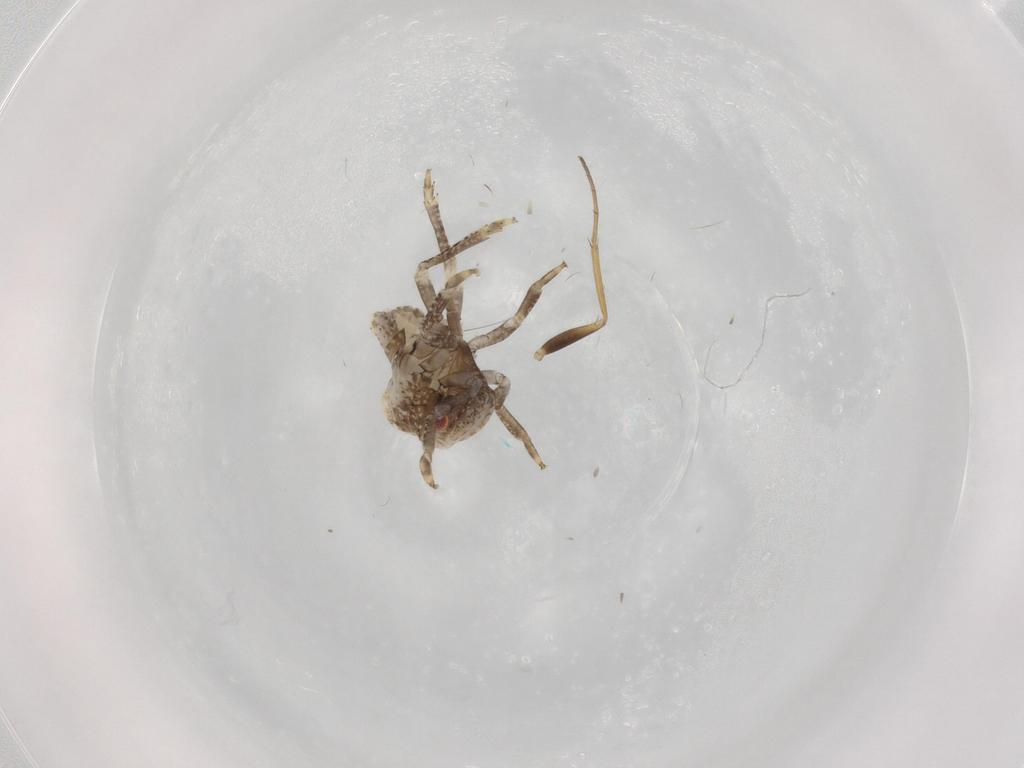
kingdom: Animalia
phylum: Arthropoda
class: Insecta
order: Hemiptera
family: Acanaloniidae
